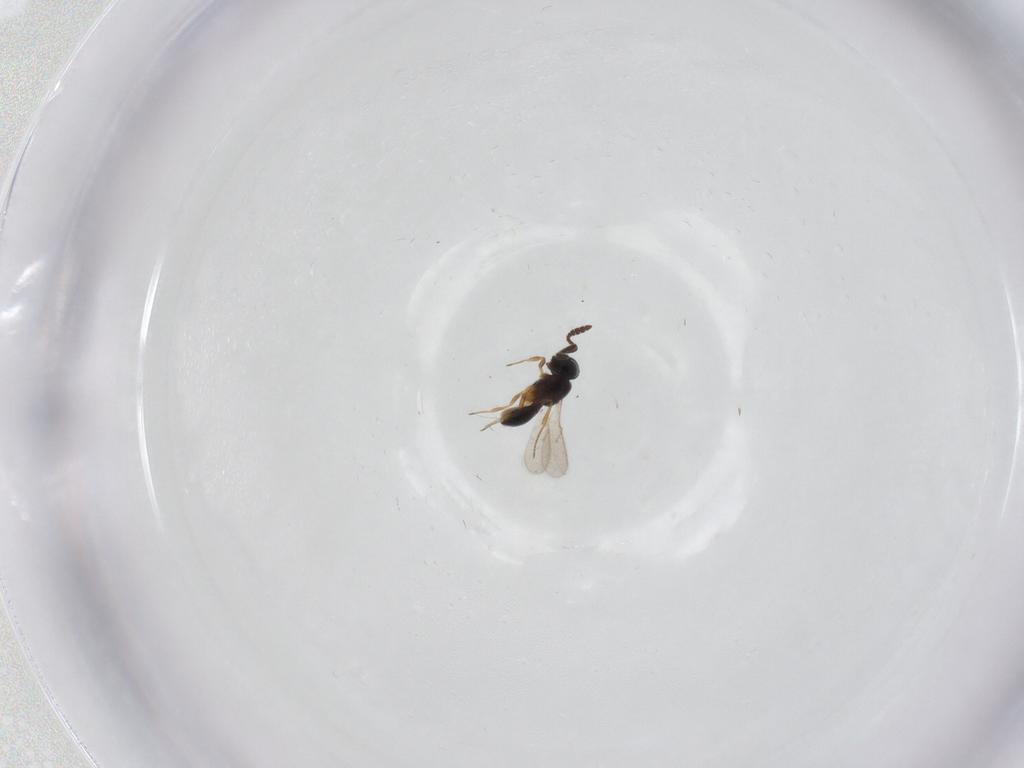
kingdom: Animalia
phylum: Arthropoda
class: Insecta
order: Hymenoptera
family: Scelionidae
